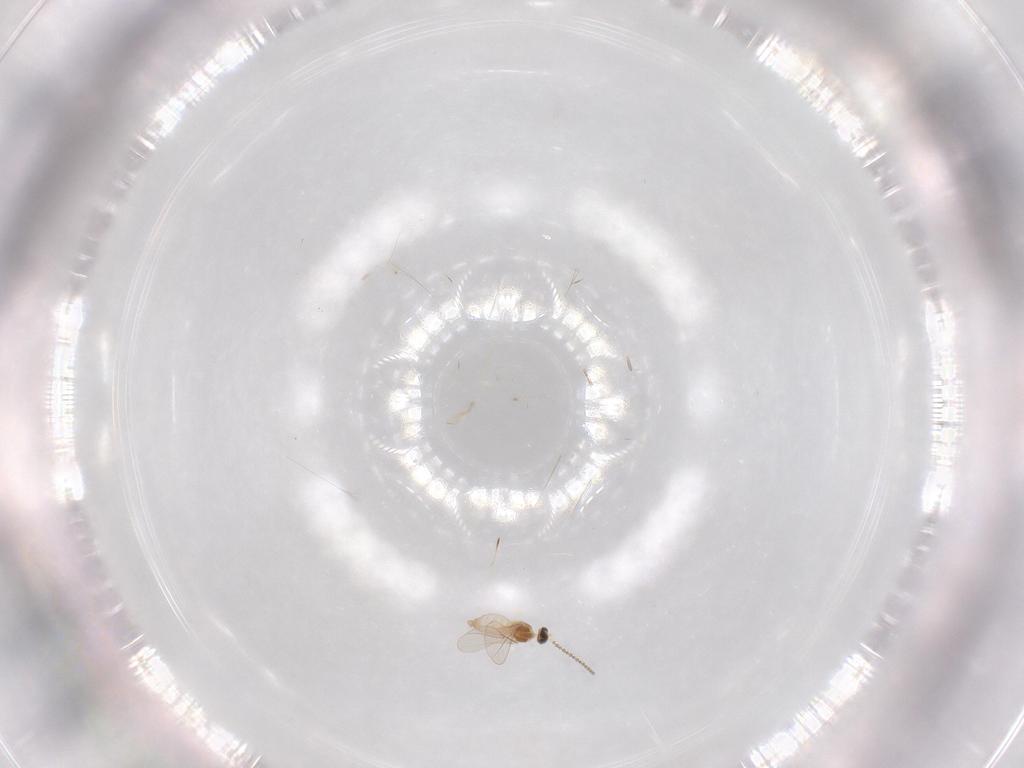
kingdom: Animalia
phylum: Arthropoda
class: Insecta
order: Diptera
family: Cecidomyiidae
